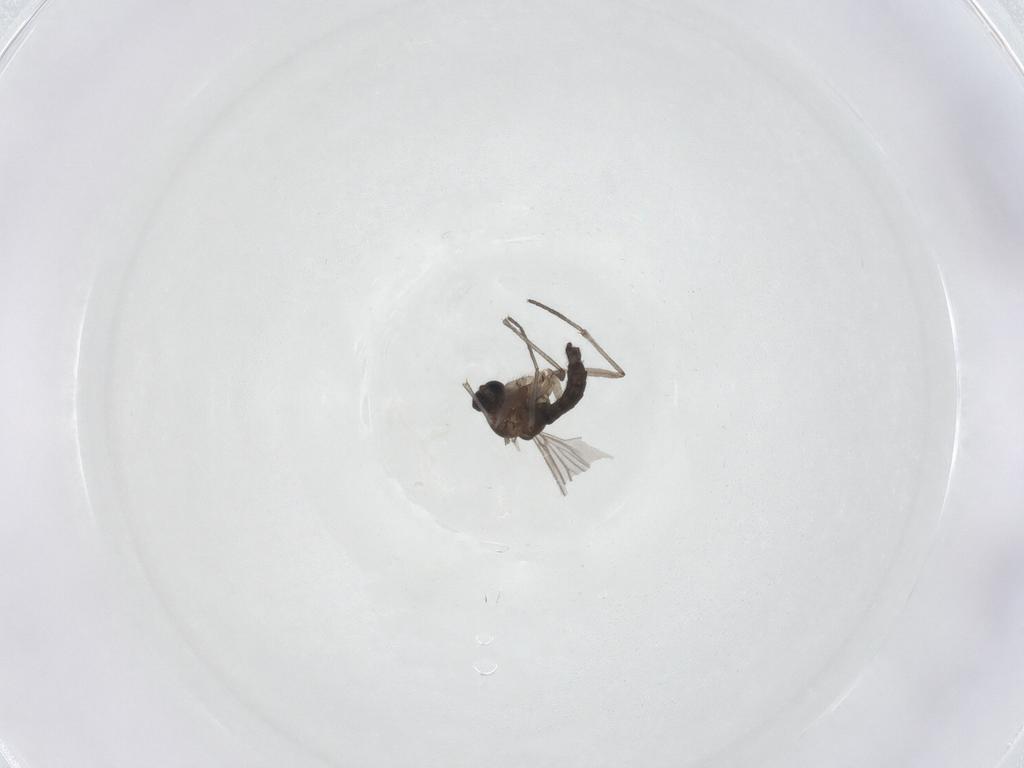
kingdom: Animalia
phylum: Arthropoda
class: Insecta
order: Diptera
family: Sciaridae
